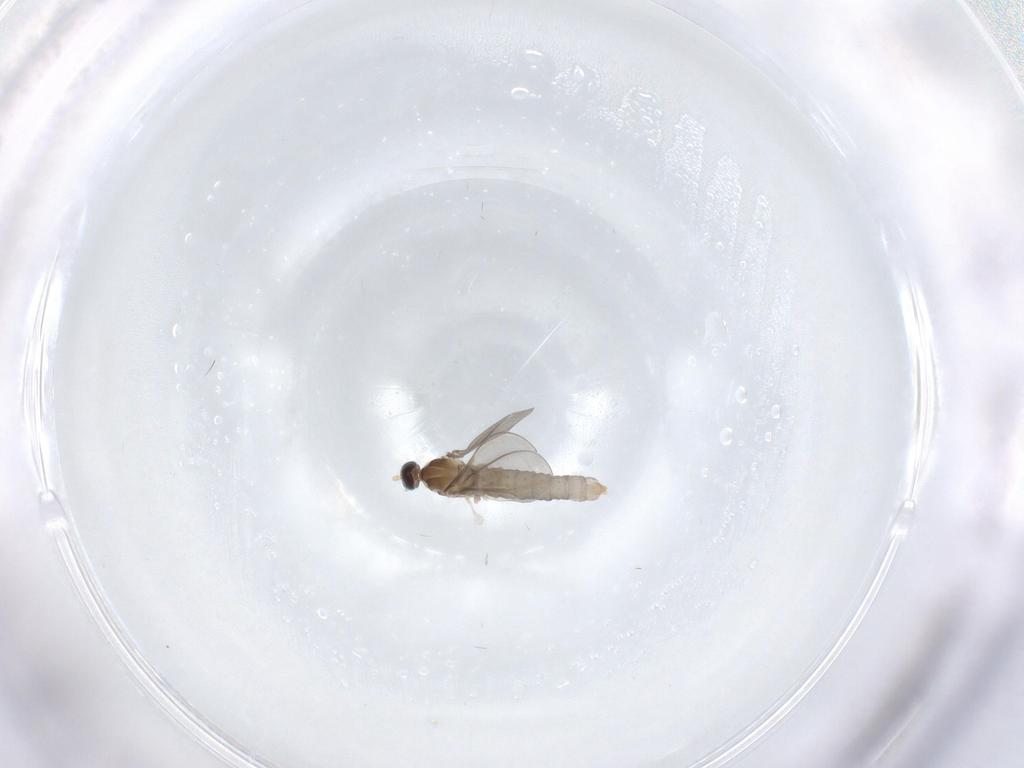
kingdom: Animalia
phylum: Arthropoda
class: Insecta
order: Diptera
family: Cecidomyiidae
